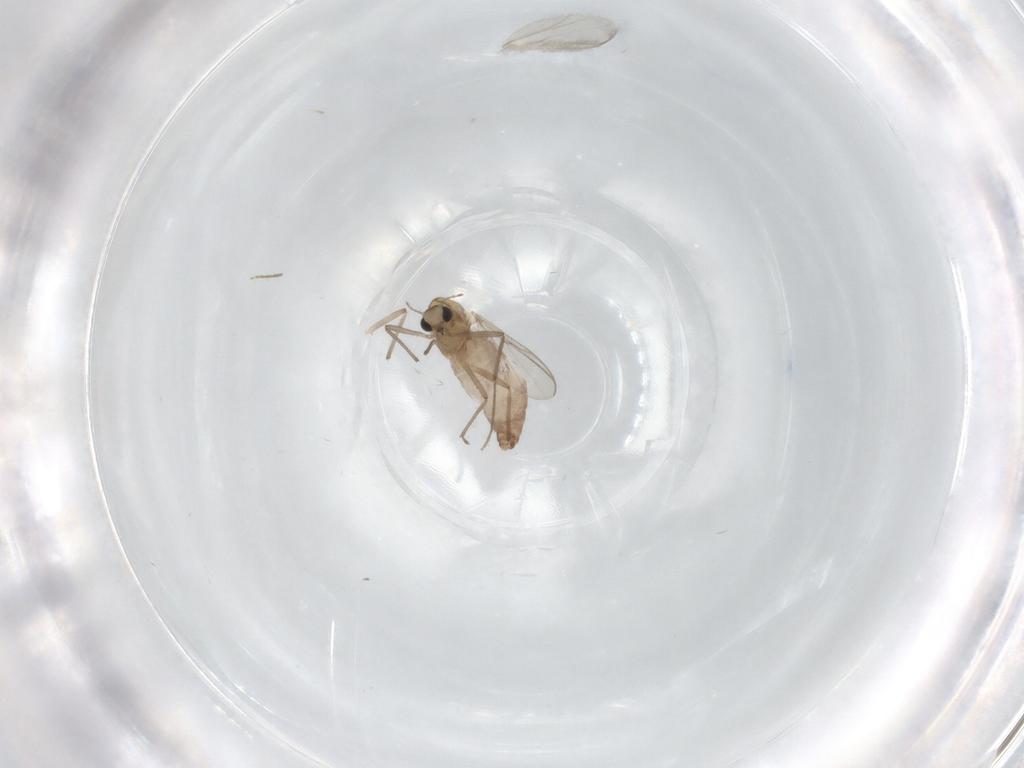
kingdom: Animalia
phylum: Arthropoda
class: Insecta
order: Diptera
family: Chironomidae
